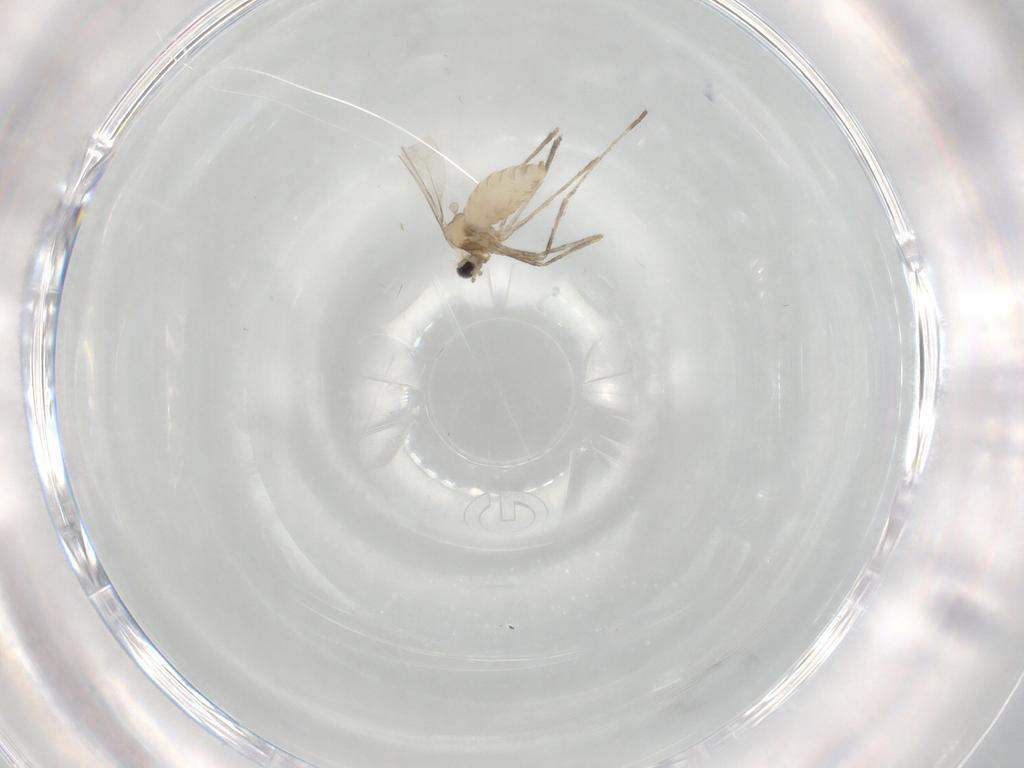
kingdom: Animalia
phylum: Arthropoda
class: Insecta
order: Diptera
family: Cecidomyiidae
